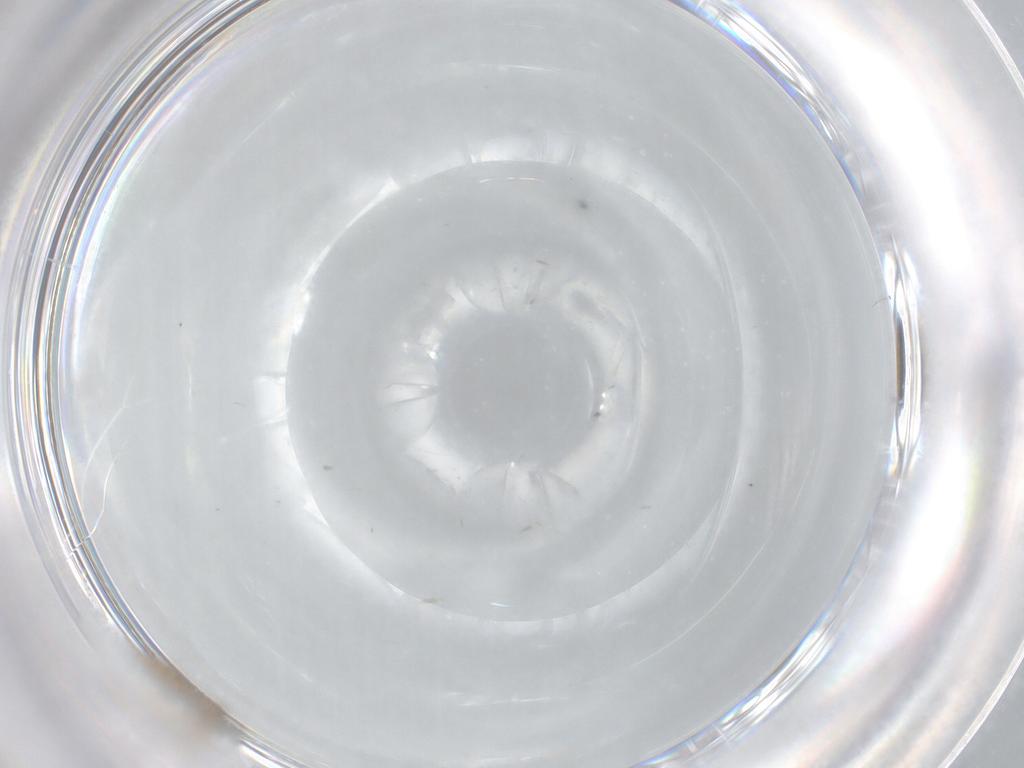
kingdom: Animalia
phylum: Arthropoda
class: Insecta
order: Diptera
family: Cecidomyiidae
